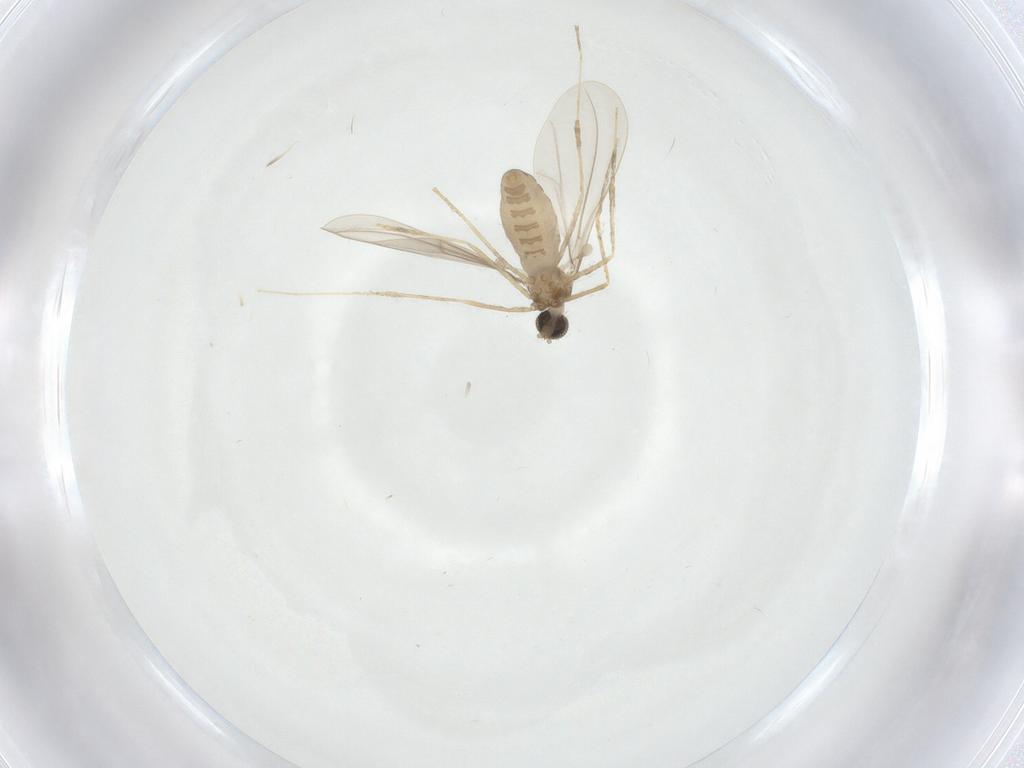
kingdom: Animalia
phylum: Arthropoda
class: Insecta
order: Diptera
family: Cecidomyiidae
